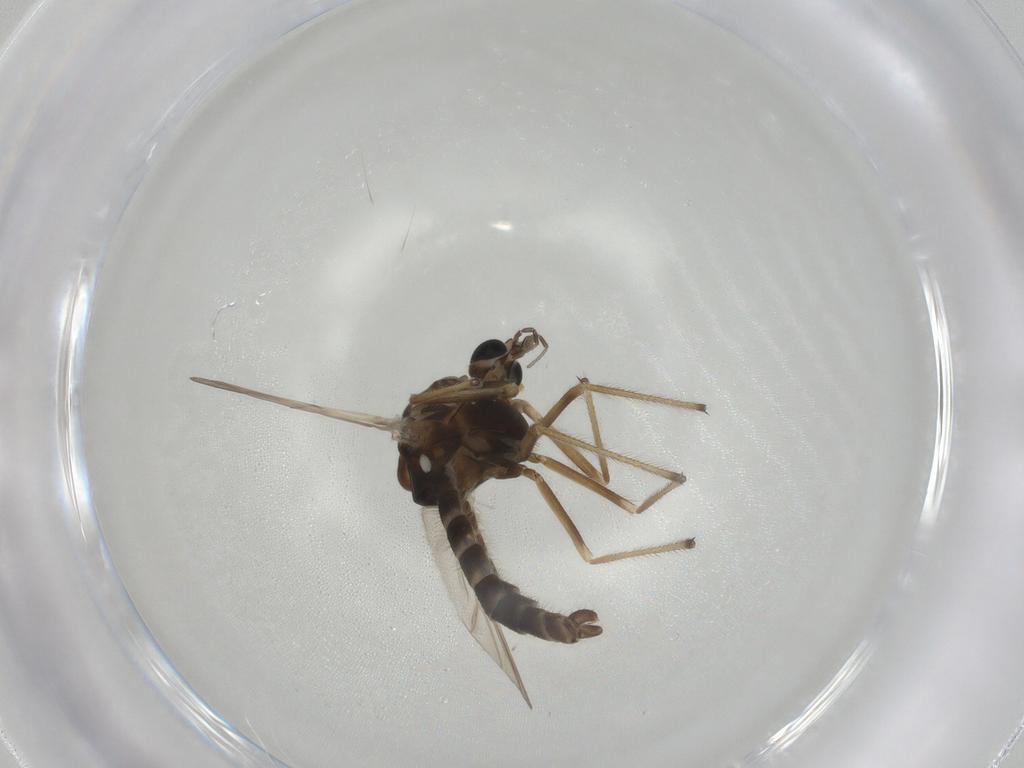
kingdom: Animalia
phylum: Arthropoda
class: Insecta
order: Diptera
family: Chironomidae
